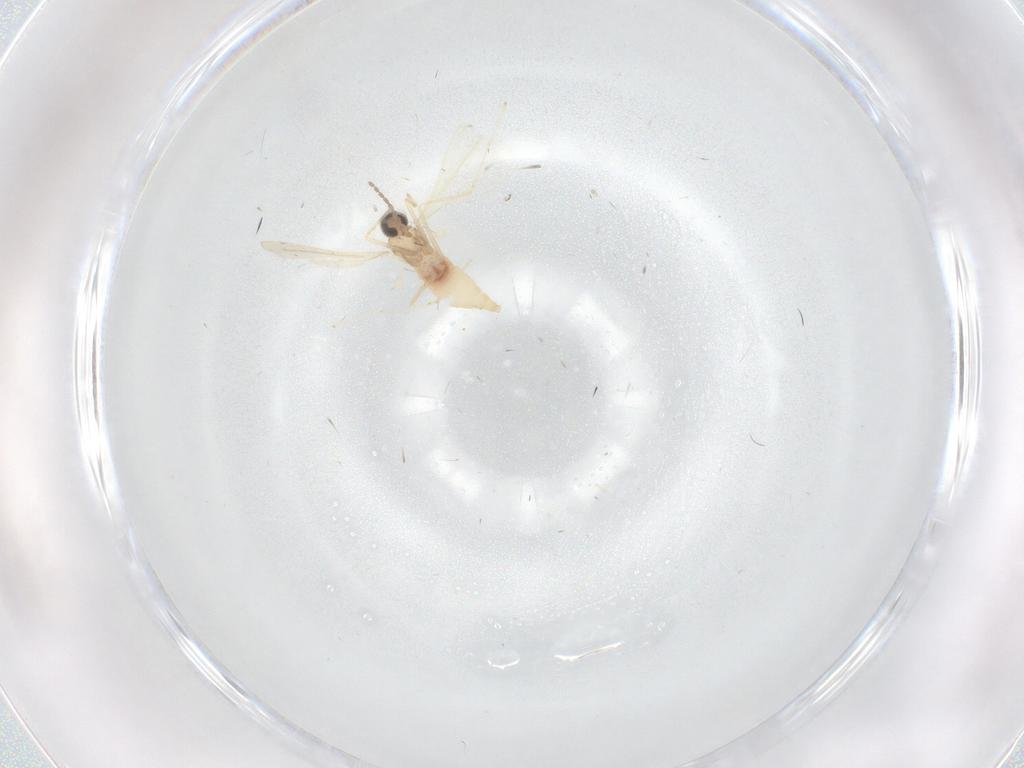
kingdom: Animalia
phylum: Arthropoda
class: Insecta
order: Diptera
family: Cecidomyiidae
